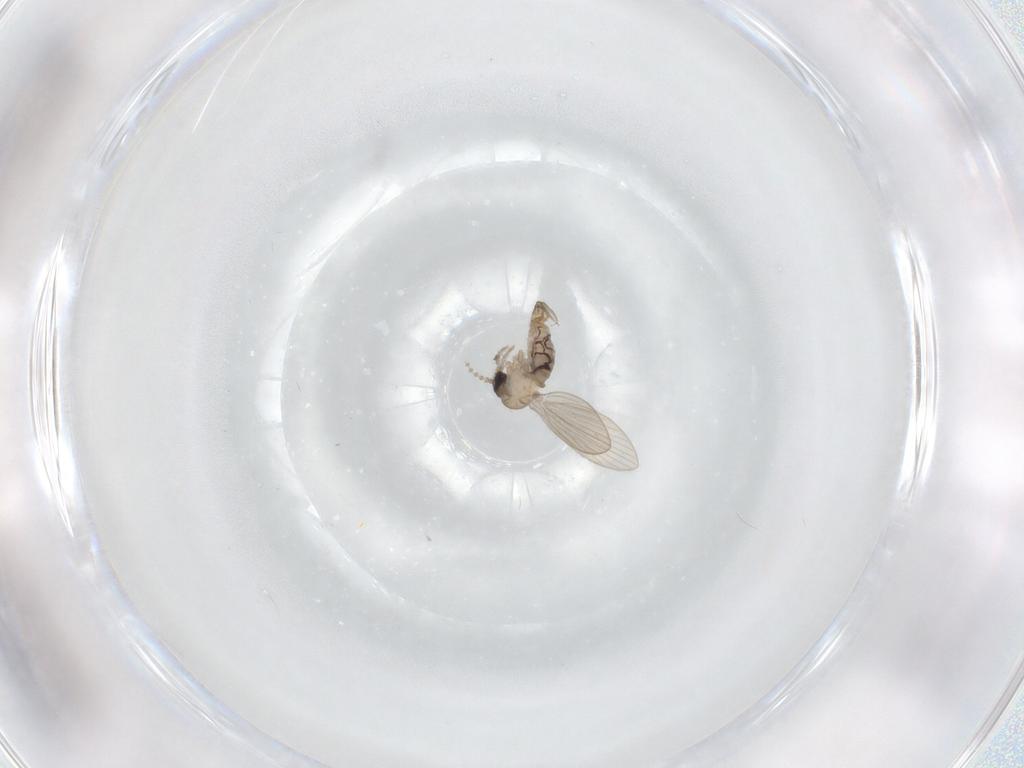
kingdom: Animalia
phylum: Arthropoda
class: Insecta
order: Diptera
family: Psychodidae
